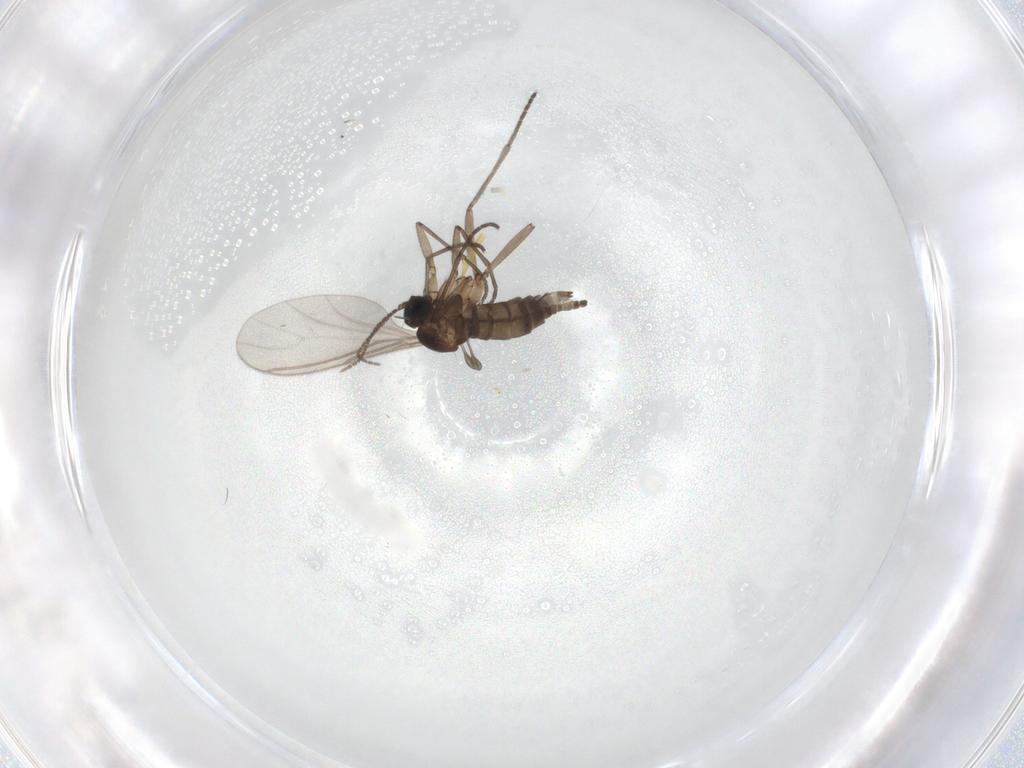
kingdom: Animalia
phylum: Arthropoda
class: Insecta
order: Diptera
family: Cecidomyiidae
